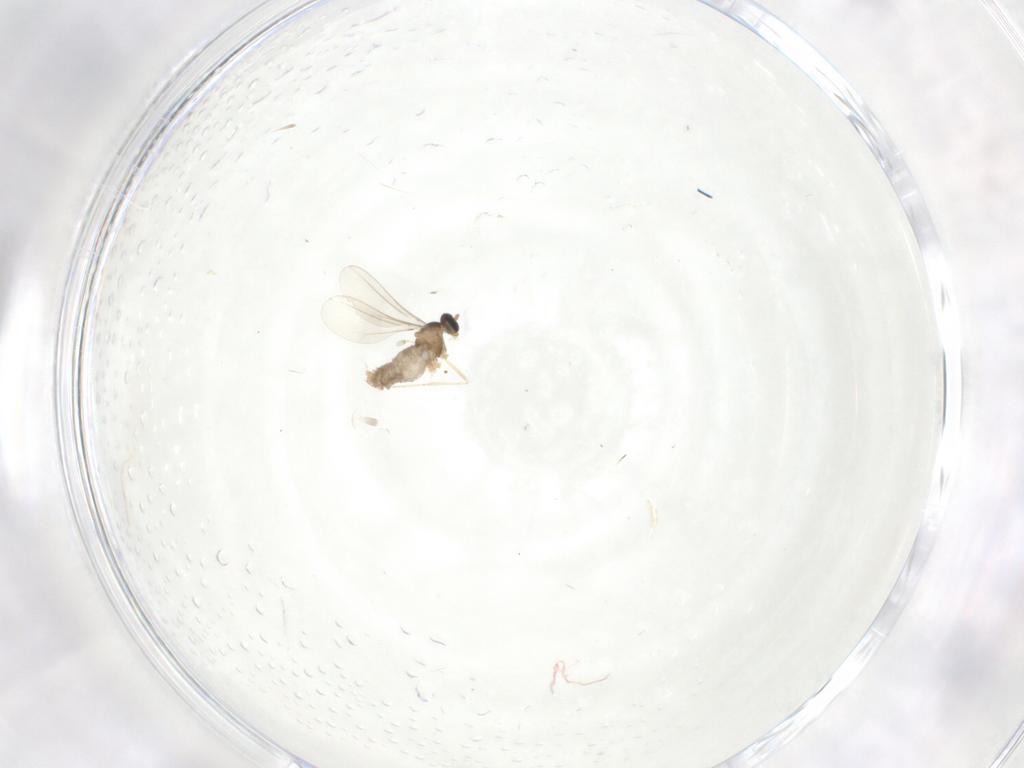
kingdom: Animalia
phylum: Arthropoda
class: Insecta
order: Diptera
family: Cecidomyiidae
